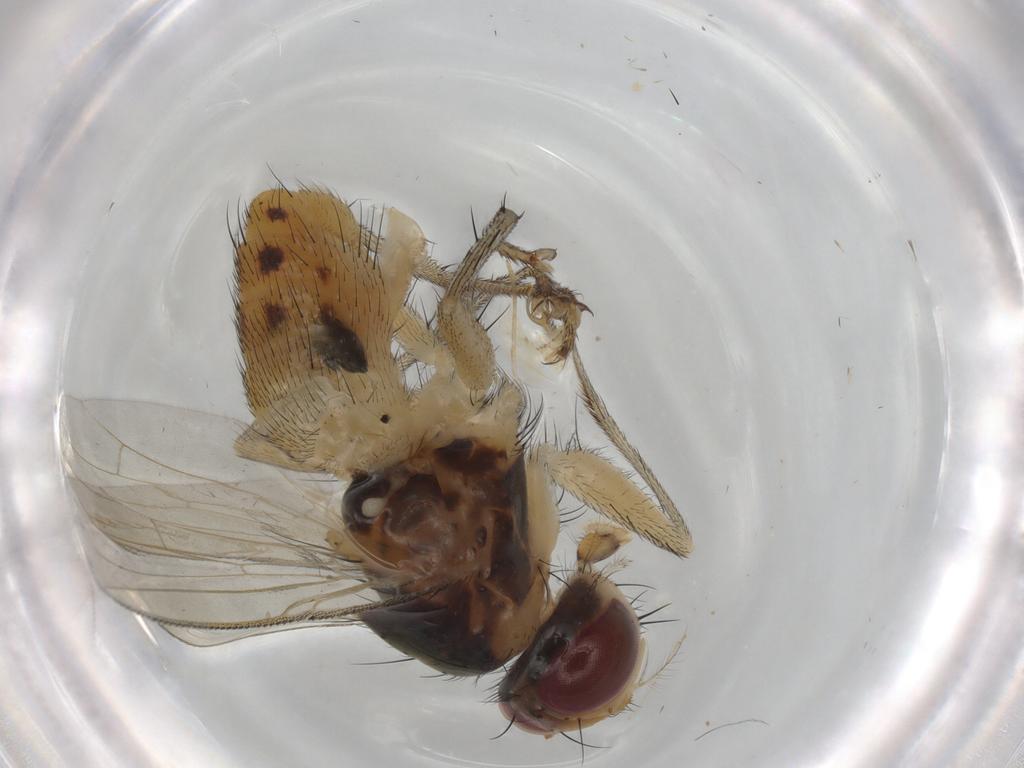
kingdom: Animalia
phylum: Arthropoda
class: Insecta
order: Diptera
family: Muscidae
